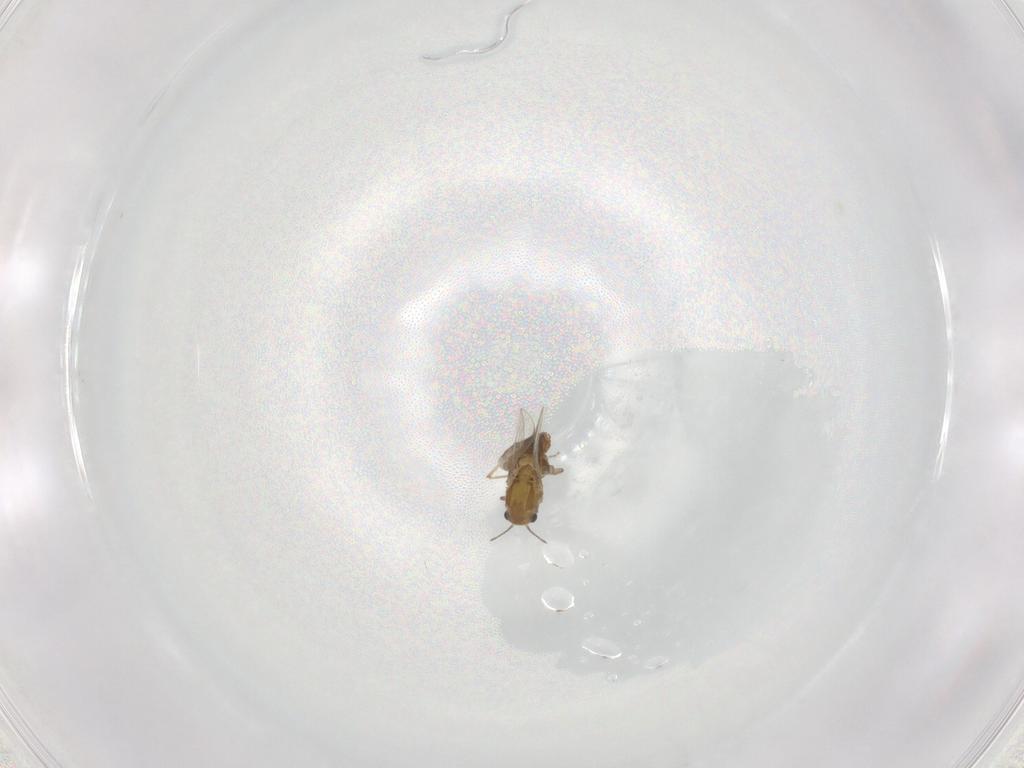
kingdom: Animalia
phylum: Arthropoda
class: Insecta
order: Diptera
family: Chironomidae
